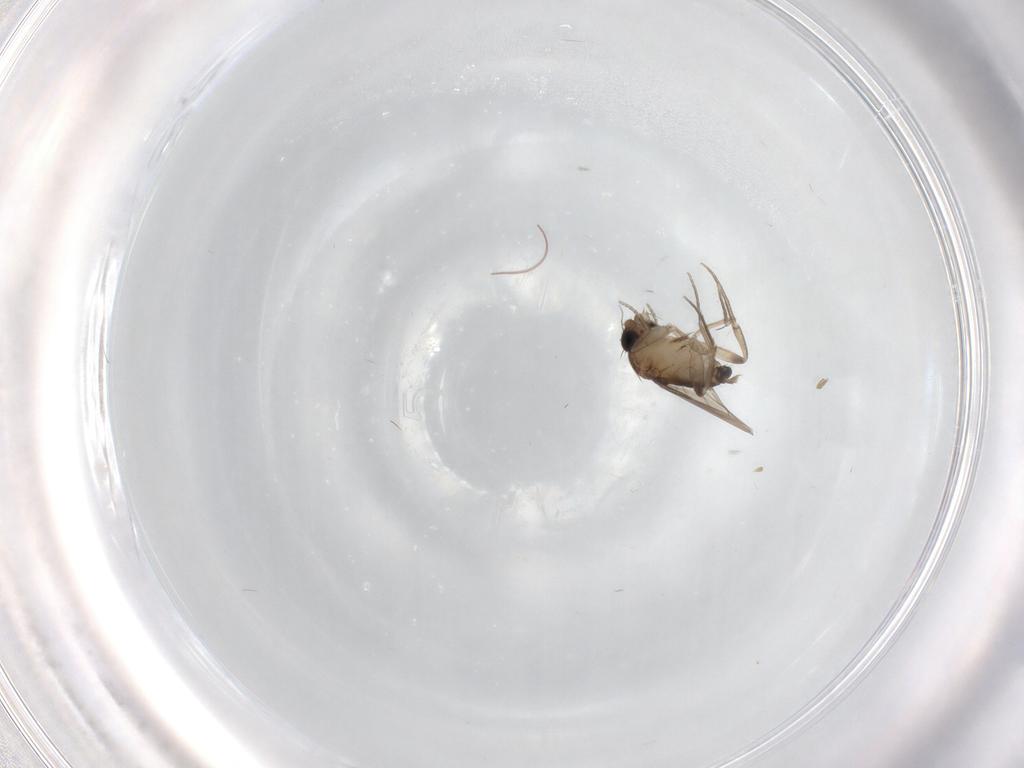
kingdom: Animalia
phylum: Arthropoda
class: Insecta
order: Diptera
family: Phoridae
